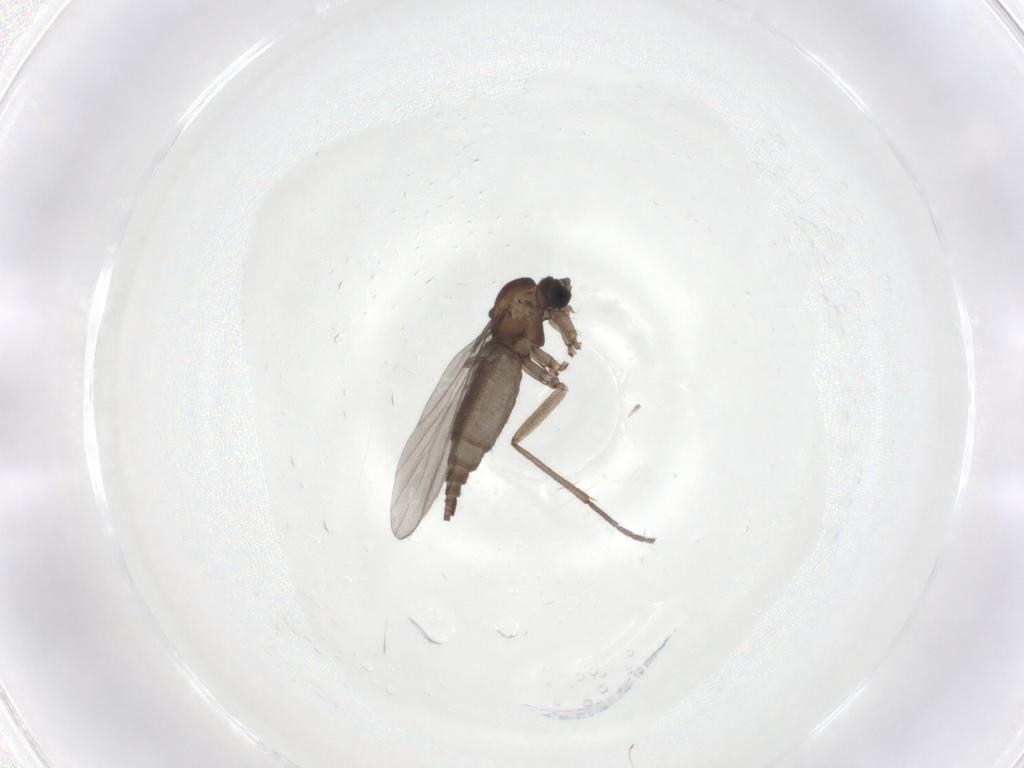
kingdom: Animalia
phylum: Arthropoda
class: Insecta
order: Diptera
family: Sciaridae
